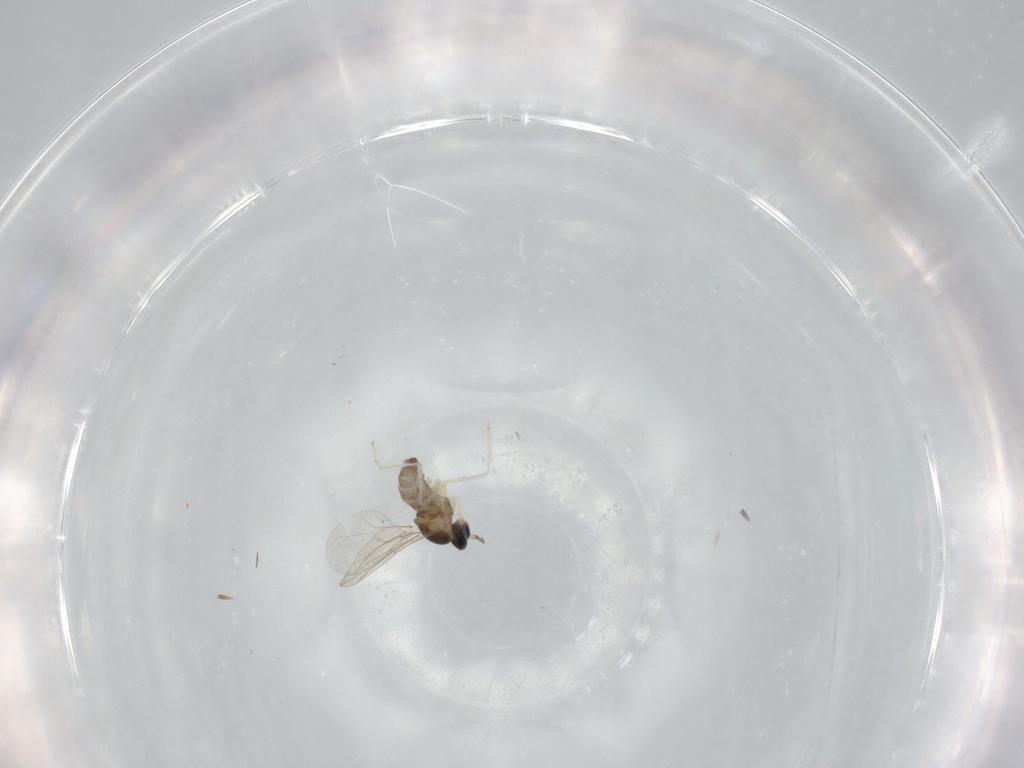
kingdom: Animalia
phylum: Arthropoda
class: Insecta
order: Diptera
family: Cecidomyiidae
